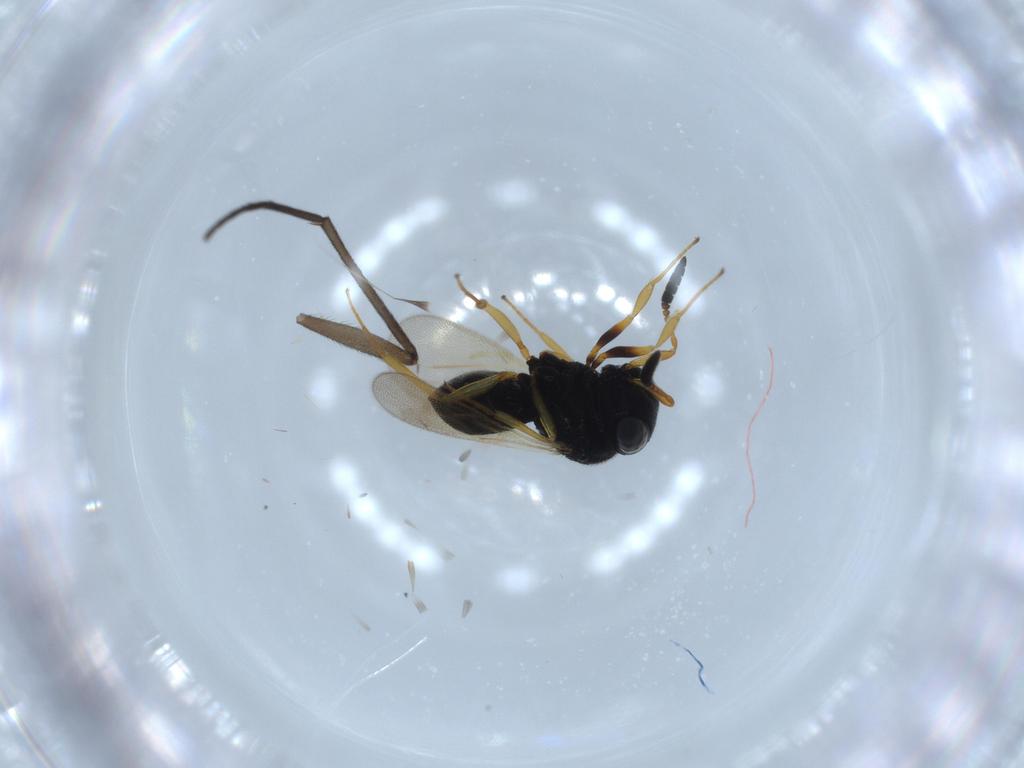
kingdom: Animalia
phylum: Arthropoda
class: Insecta
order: Hymenoptera
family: Scelionidae
